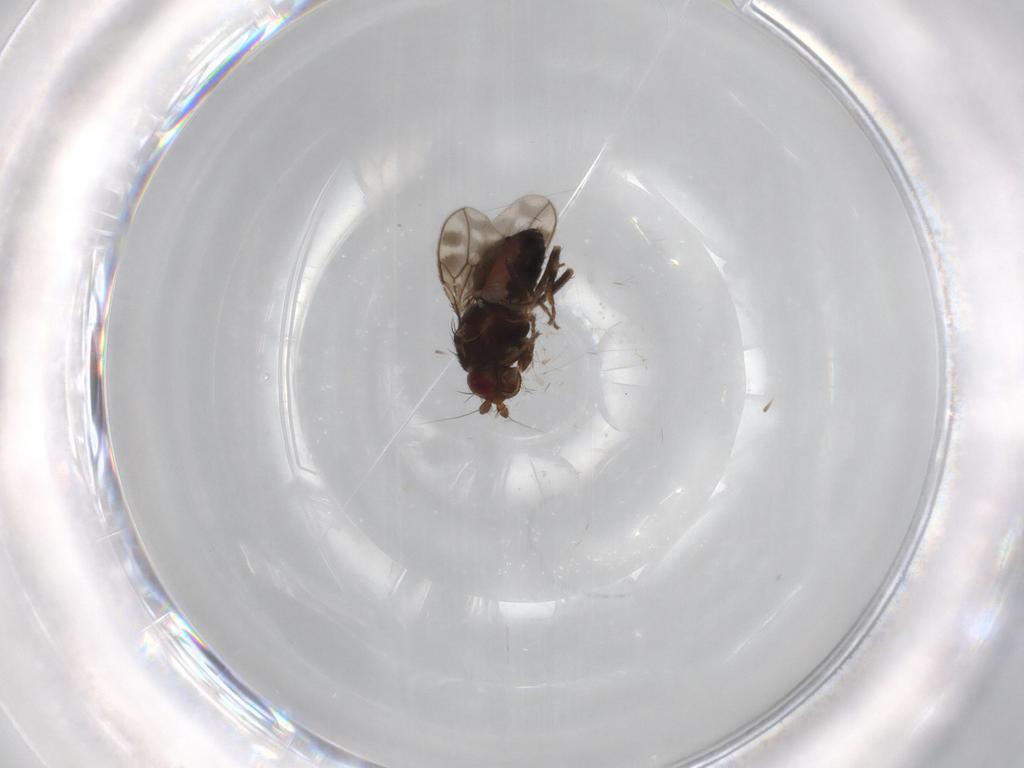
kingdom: Animalia
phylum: Arthropoda
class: Insecta
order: Diptera
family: Sphaeroceridae
